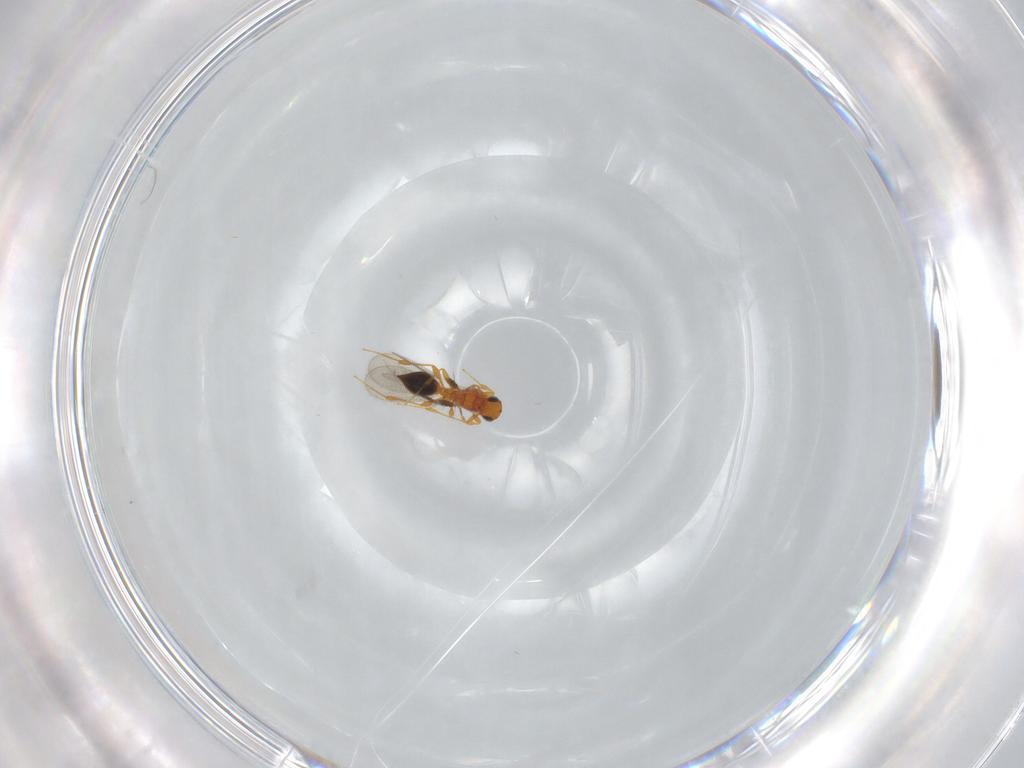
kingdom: Animalia
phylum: Arthropoda
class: Insecta
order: Hymenoptera
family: Platygastridae
